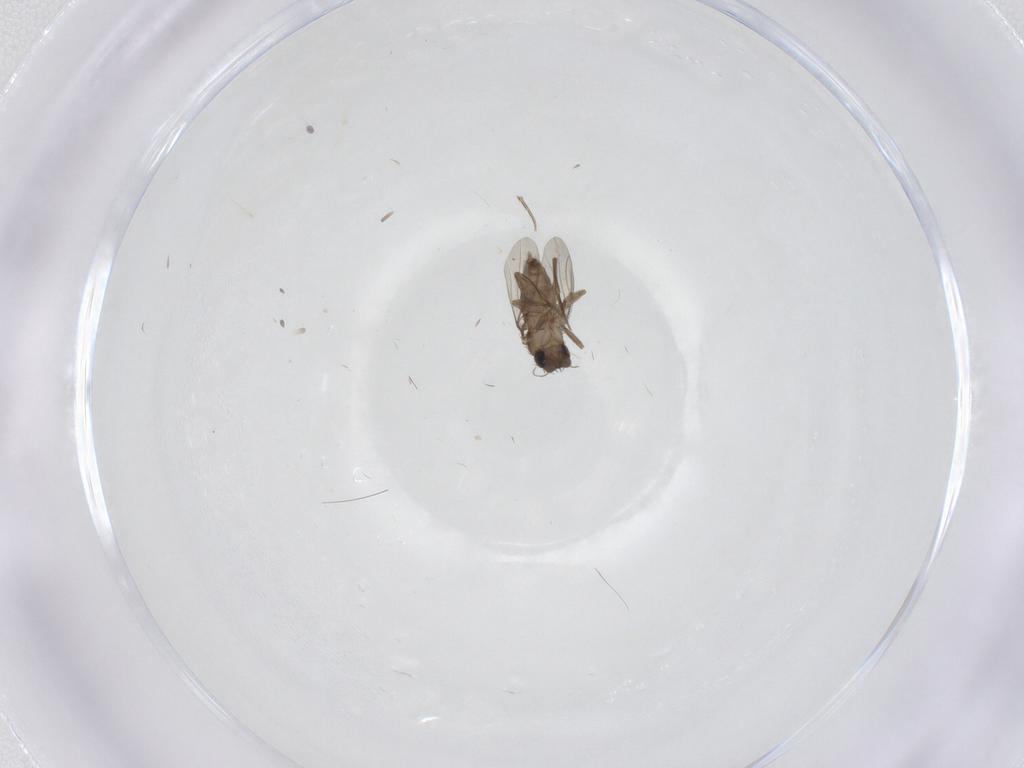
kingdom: Animalia
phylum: Arthropoda
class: Insecta
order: Diptera
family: Phoridae
